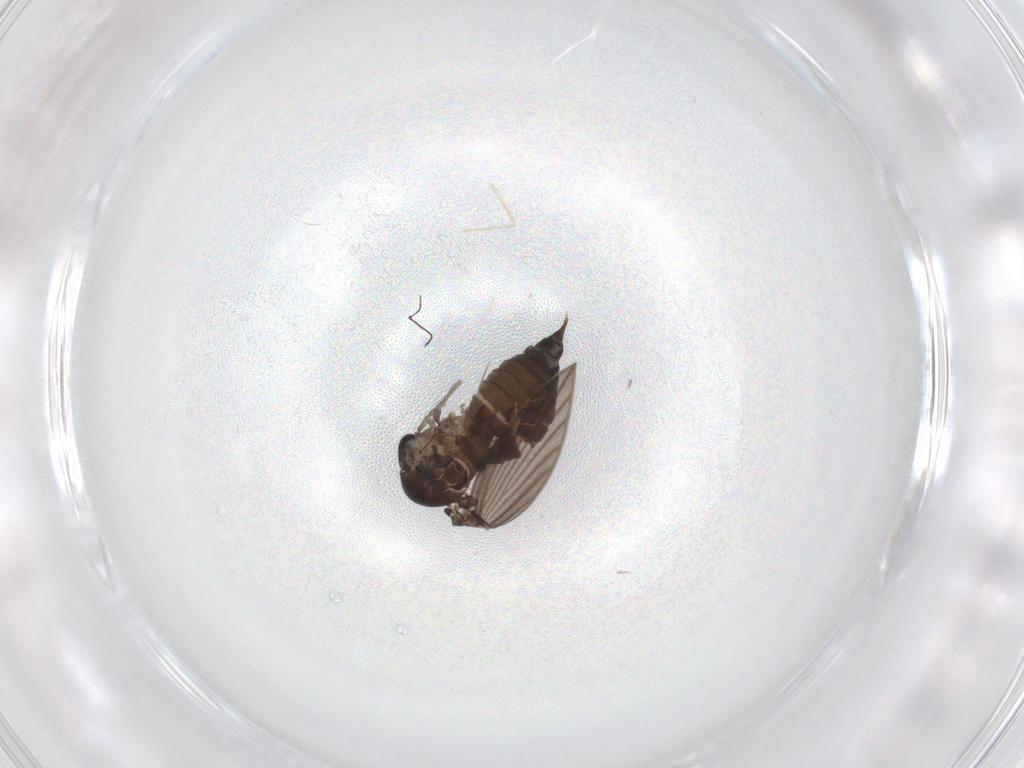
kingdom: Animalia
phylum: Arthropoda
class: Insecta
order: Diptera
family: Psychodidae
